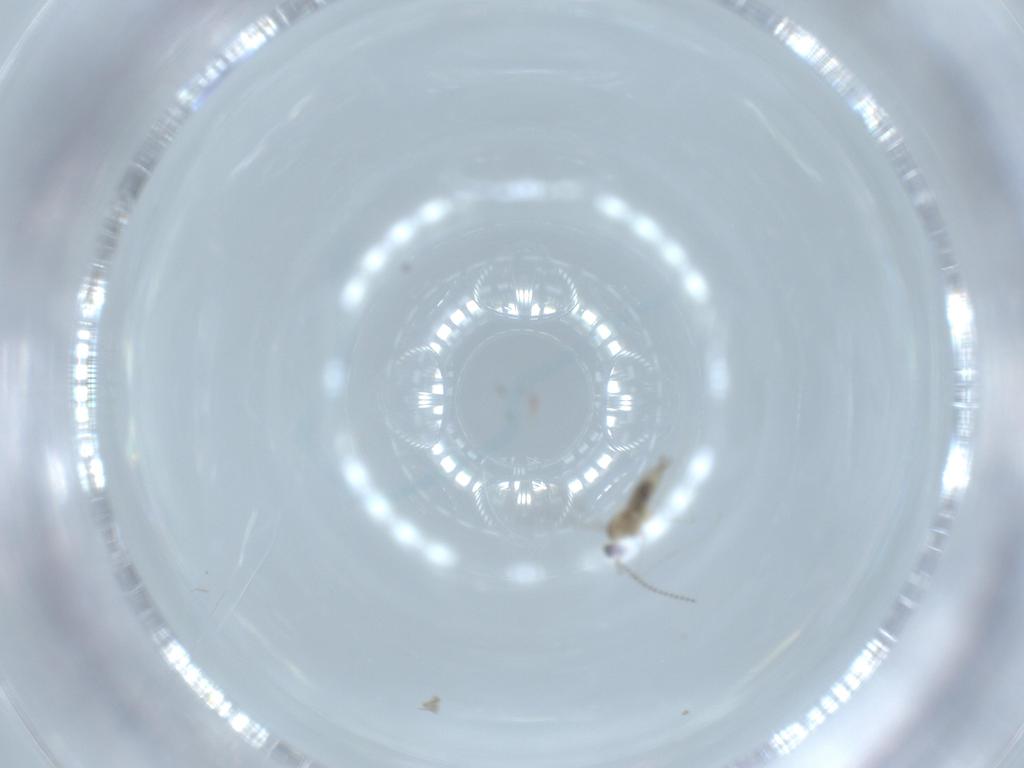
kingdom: Animalia
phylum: Arthropoda
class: Insecta
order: Diptera
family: Cecidomyiidae
